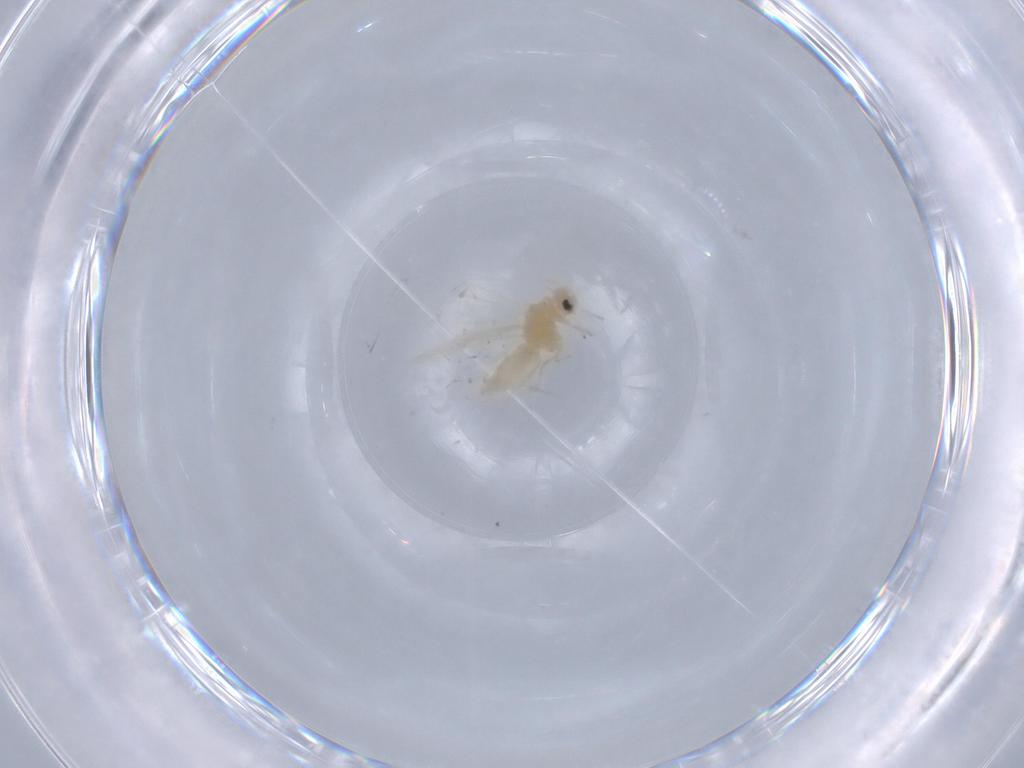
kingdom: Animalia
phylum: Arthropoda
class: Insecta
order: Hemiptera
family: Aleyrodidae
